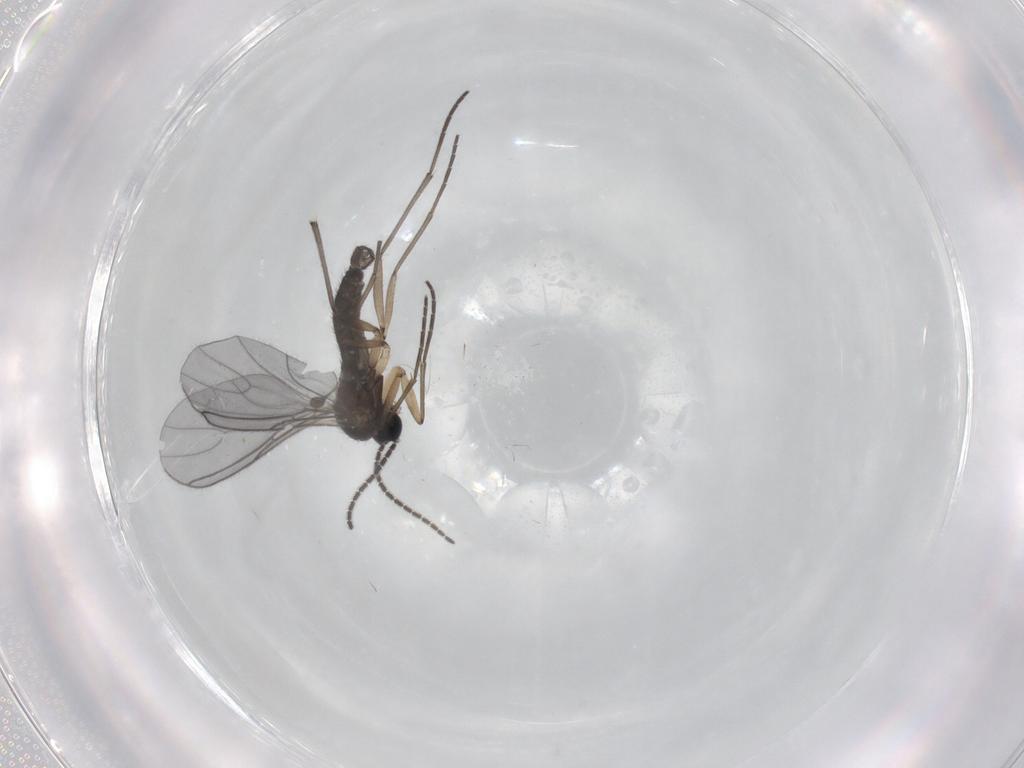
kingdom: Animalia
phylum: Arthropoda
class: Insecta
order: Diptera
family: Sciaridae
